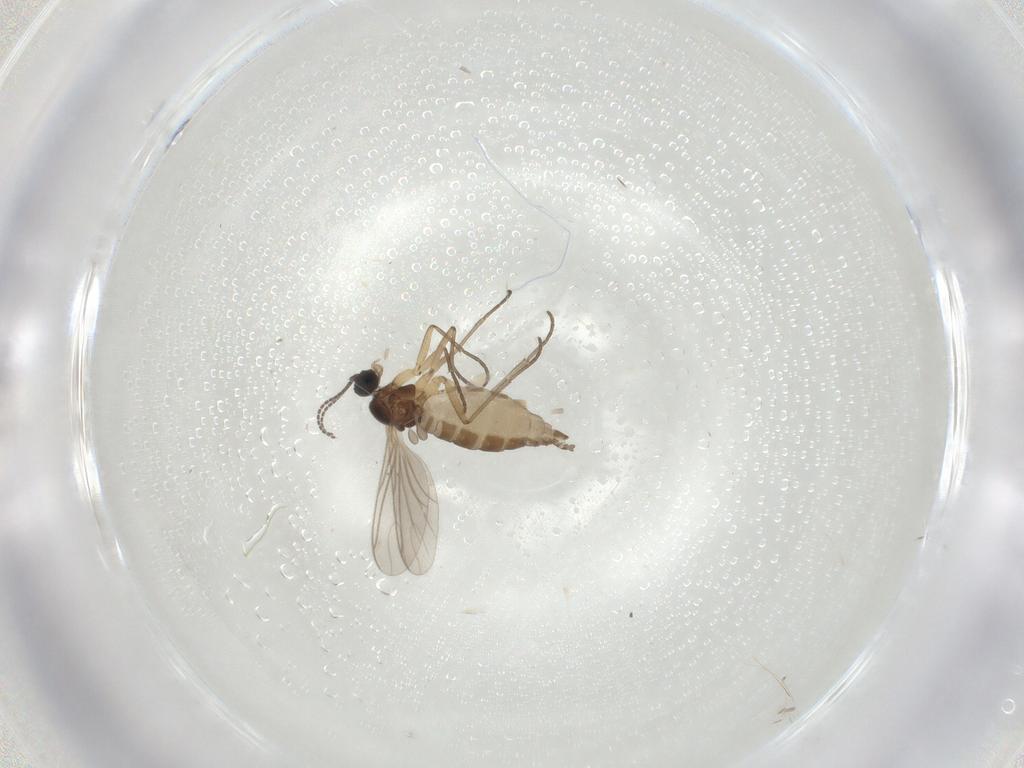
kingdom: Animalia
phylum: Arthropoda
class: Insecta
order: Diptera
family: Sciaridae
